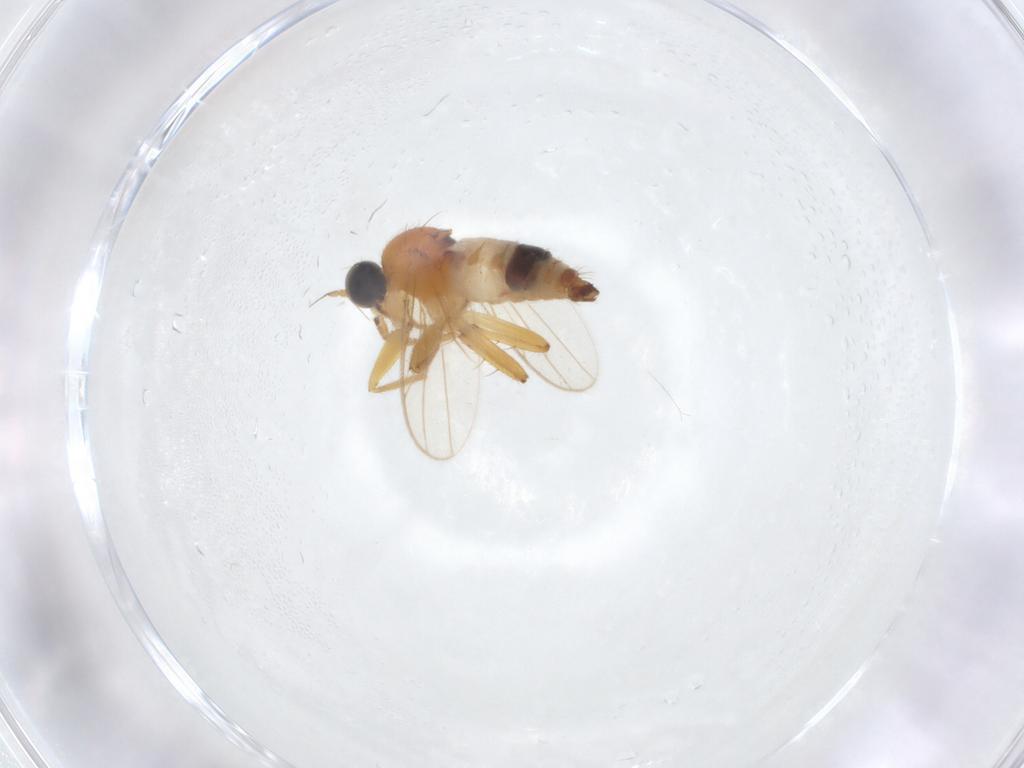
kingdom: Animalia
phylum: Arthropoda
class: Insecta
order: Diptera
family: Hybotidae
